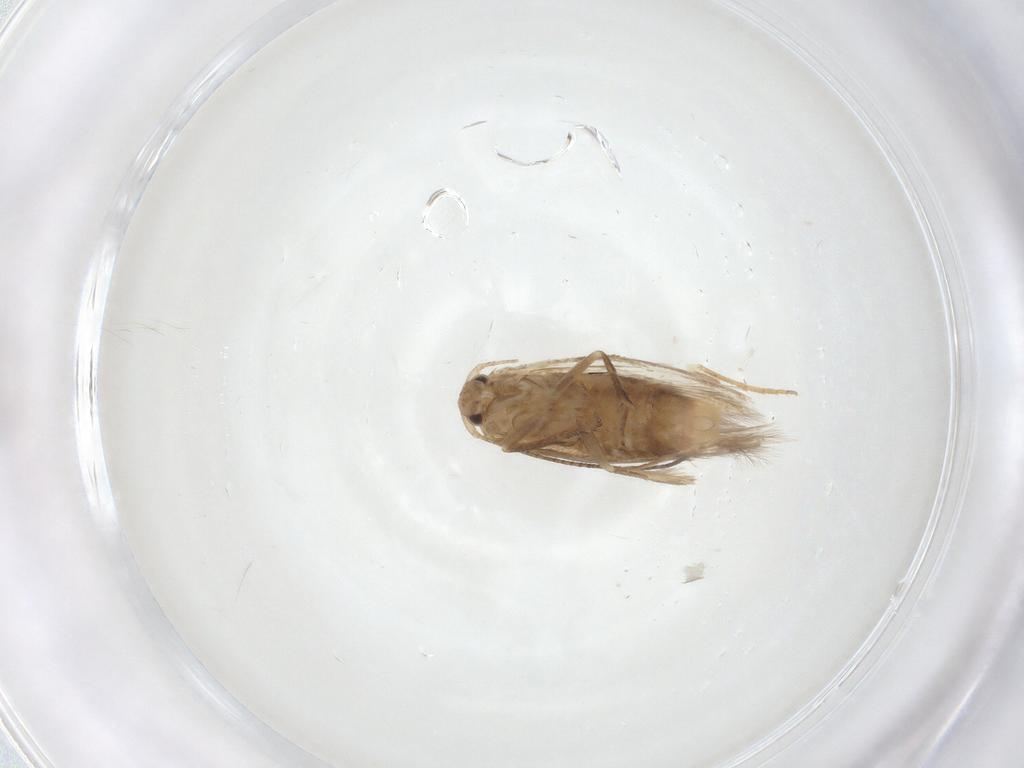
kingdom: Animalia
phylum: Arthropoda
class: Insecta
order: Lepidoptera
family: Bucculatricidae
